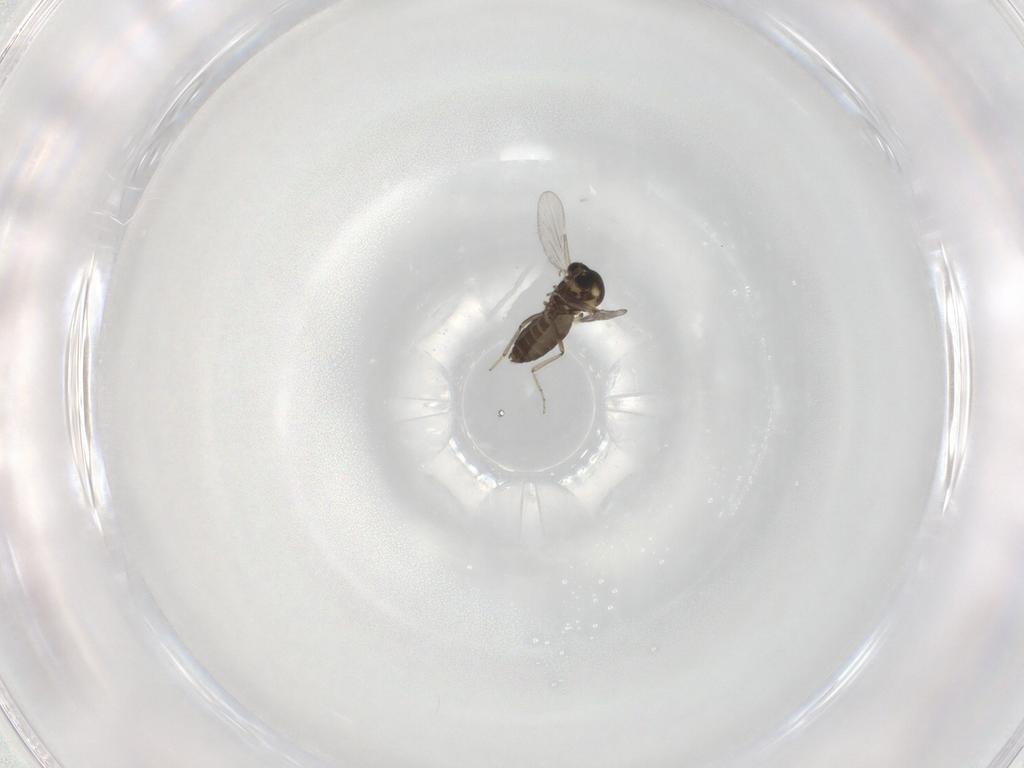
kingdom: Animalia
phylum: Arthropoda
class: Insecta
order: Diptera
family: Ceratopogonidae
